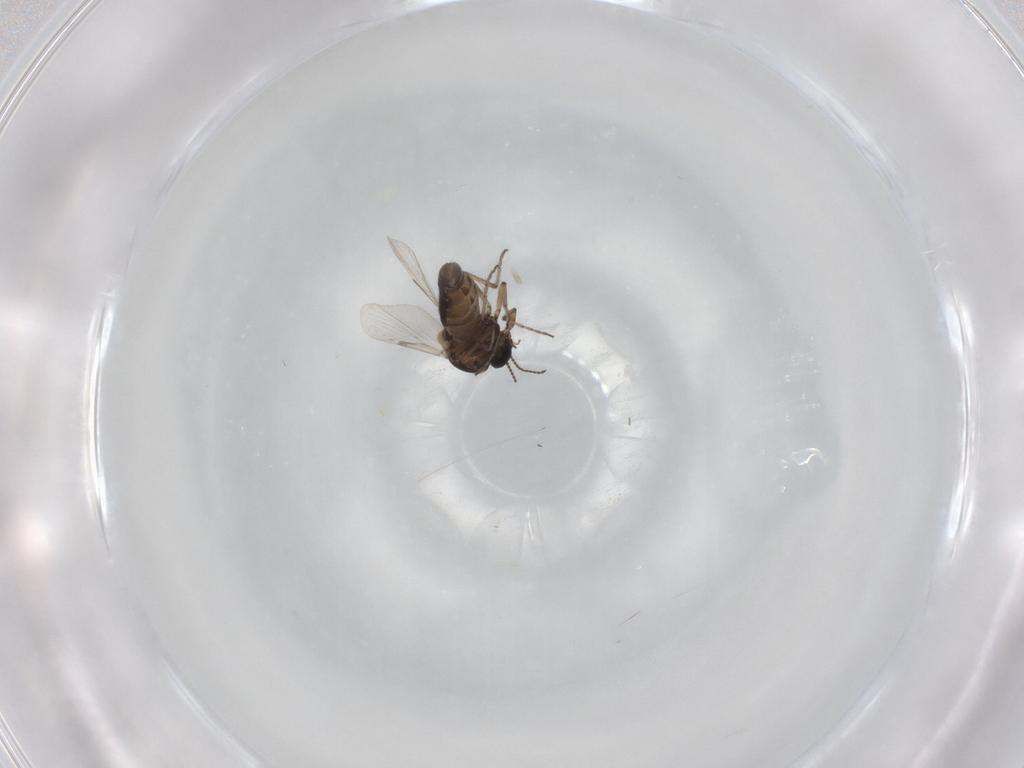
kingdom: Animalia
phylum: Arthropoda
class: Insecta
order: Diptera
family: Ceratopogonidae
